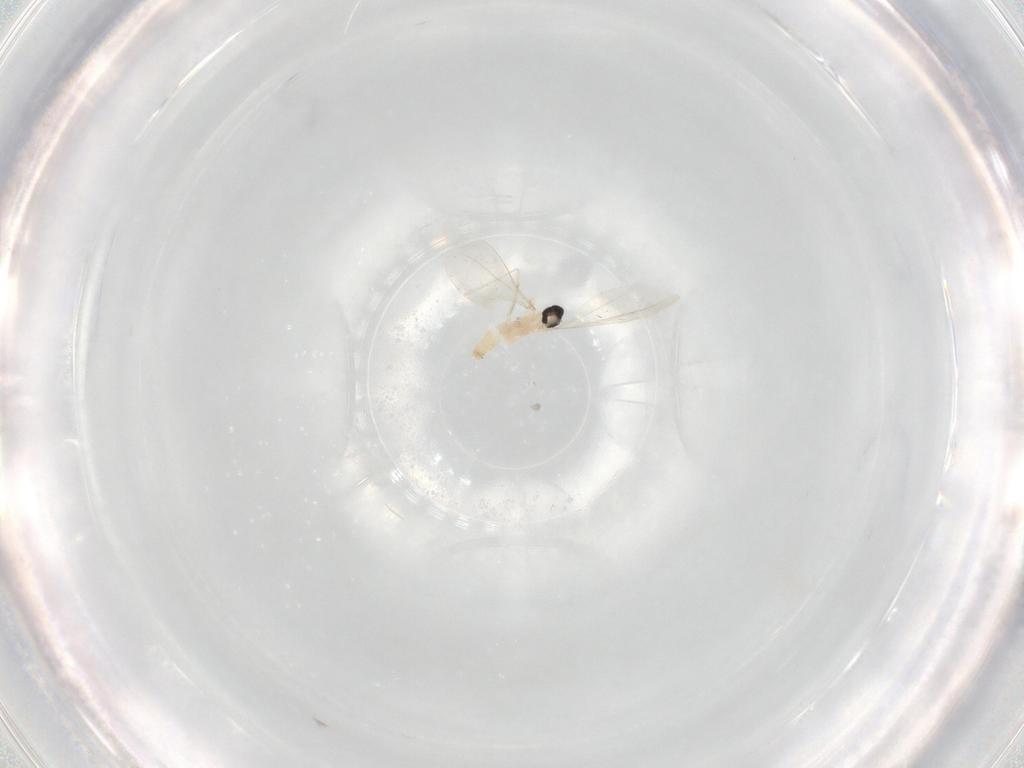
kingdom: Animalia
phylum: Arthropoda
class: Insecta
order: Diptera
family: Cecidomyiidae
